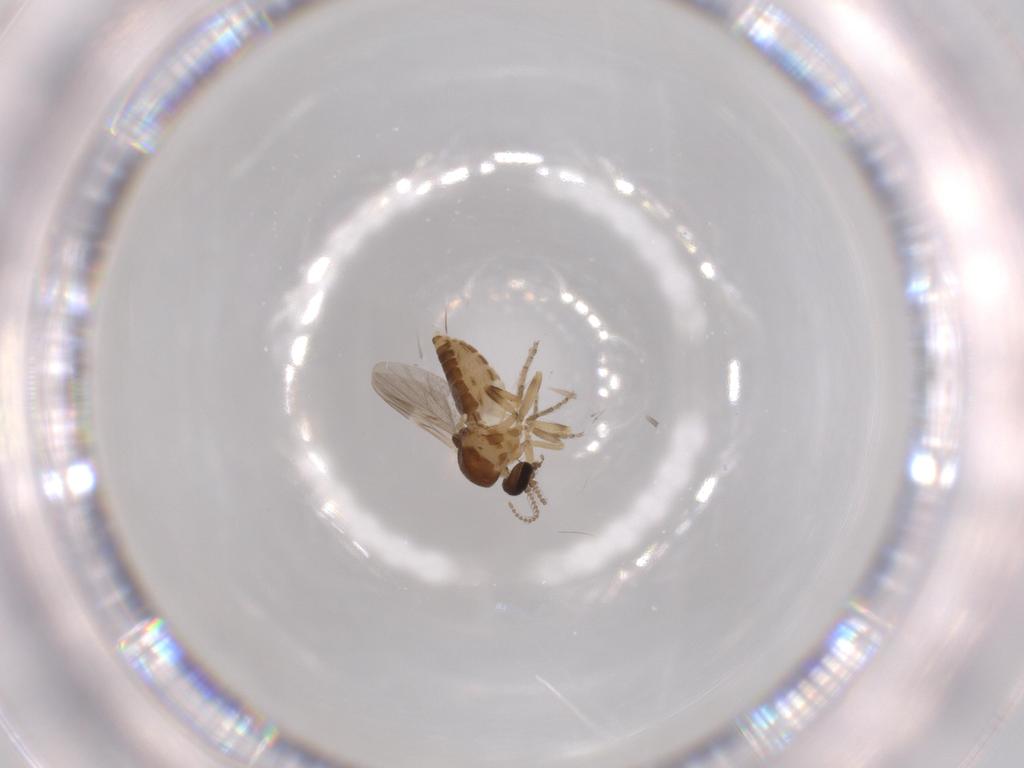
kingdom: Animalia
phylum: Arthropoda
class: Insecta
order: Diptera
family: Ceratopogonidae
